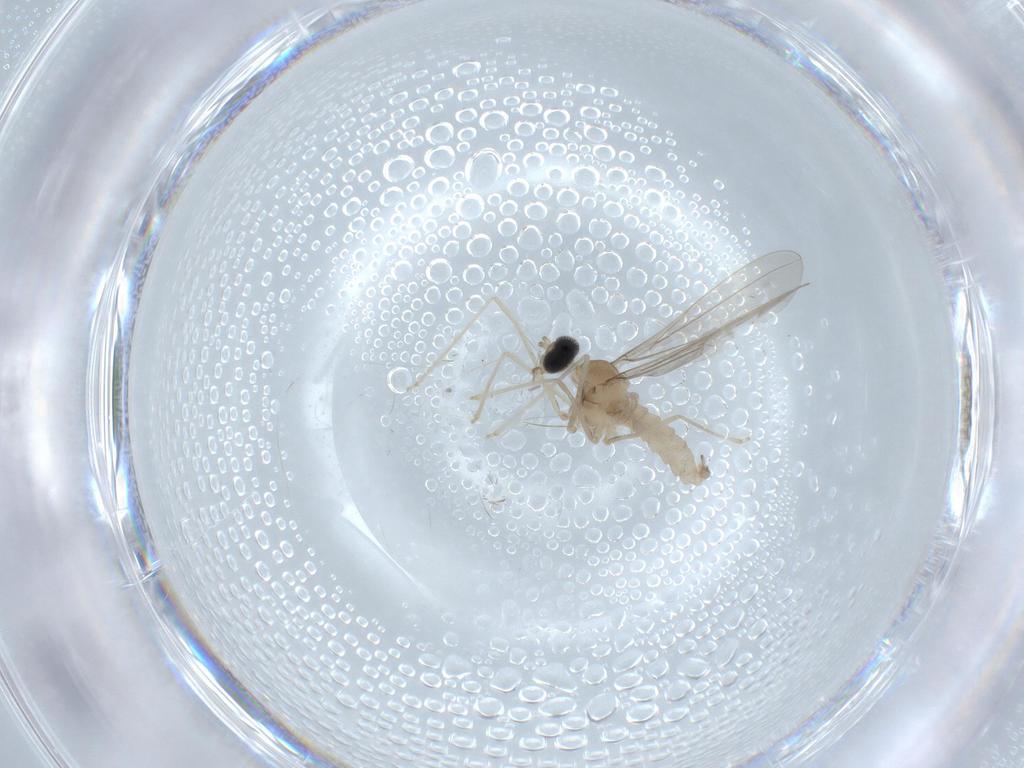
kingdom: Animalia
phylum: Arthropoda
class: Insecta
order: Diptera
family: Cecidomyiidae
